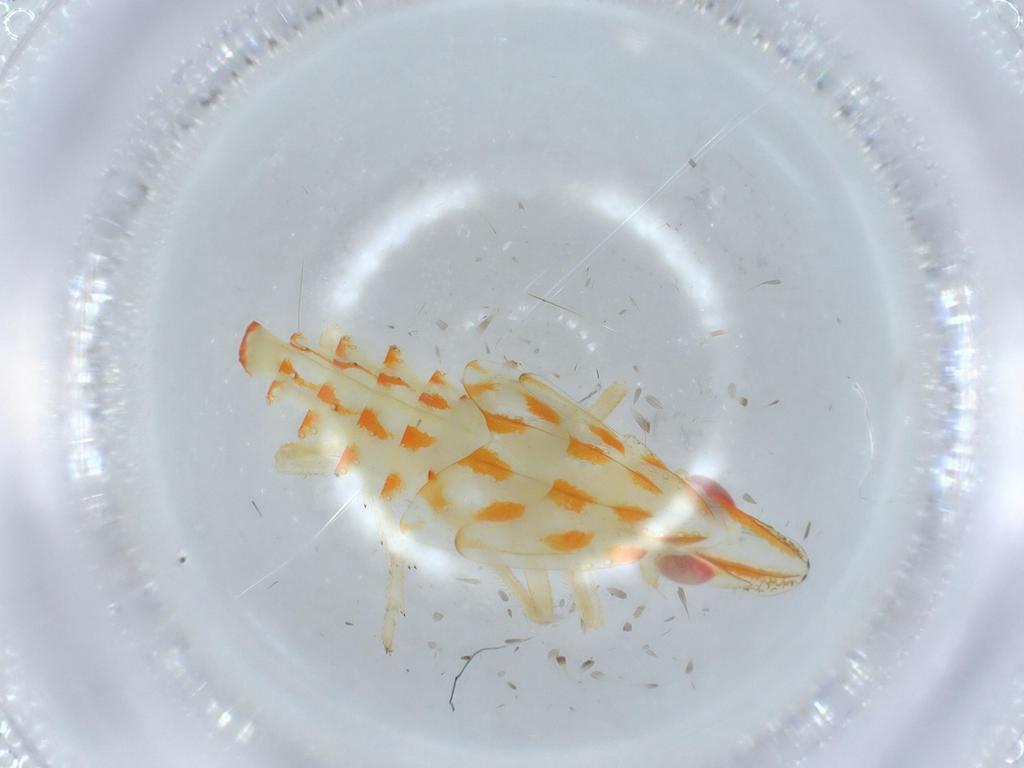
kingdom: Animalia
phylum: Arthropoda
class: Insecta
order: Hemiptera
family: Tropiduchidae
